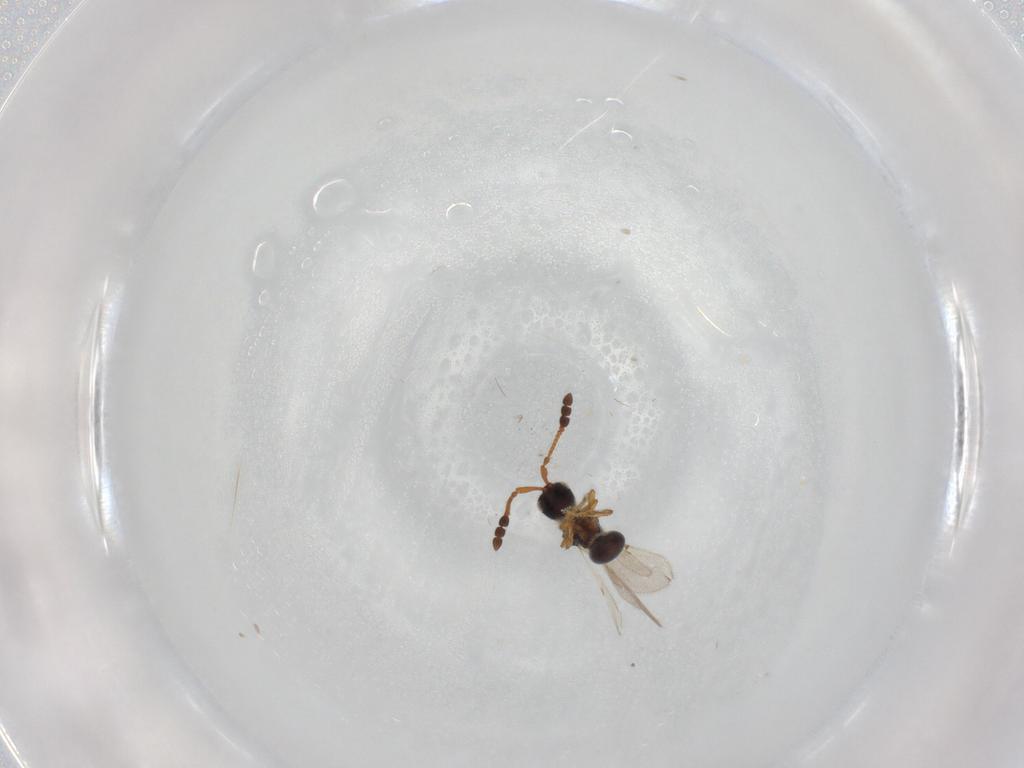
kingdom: Animalia
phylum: Arthropoda
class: Insecta
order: Hymenoptera
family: Diapriidae
